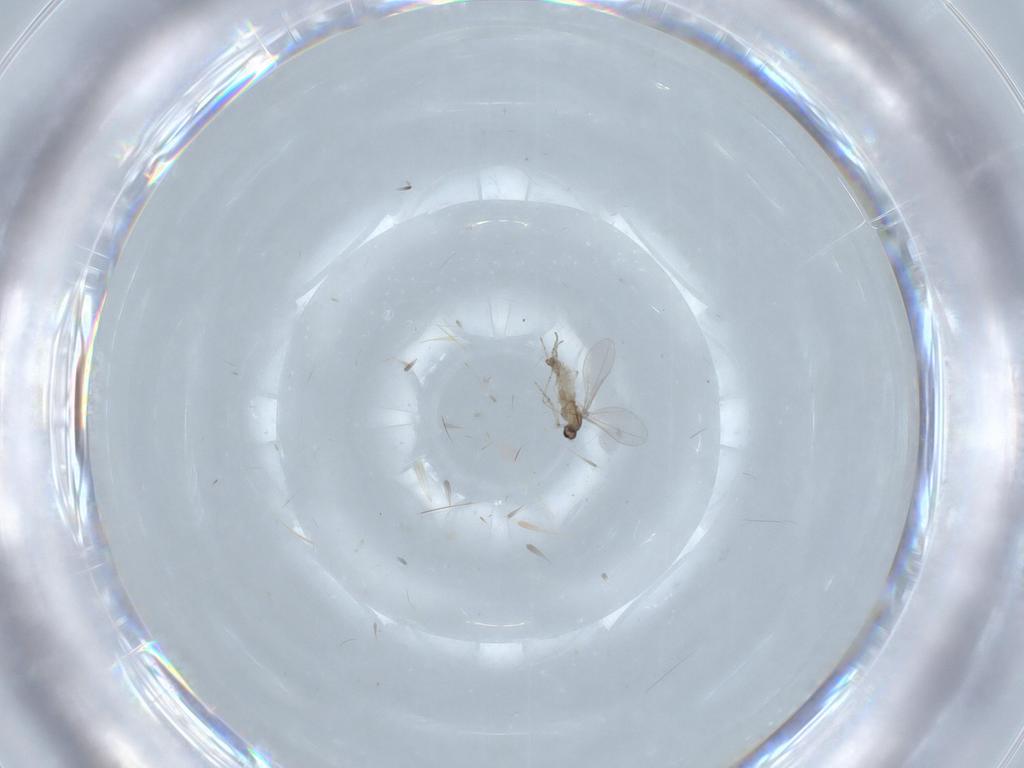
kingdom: Animalia
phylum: Arthropoda
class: Insecta
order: Diptera
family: Cecidomyiidae
